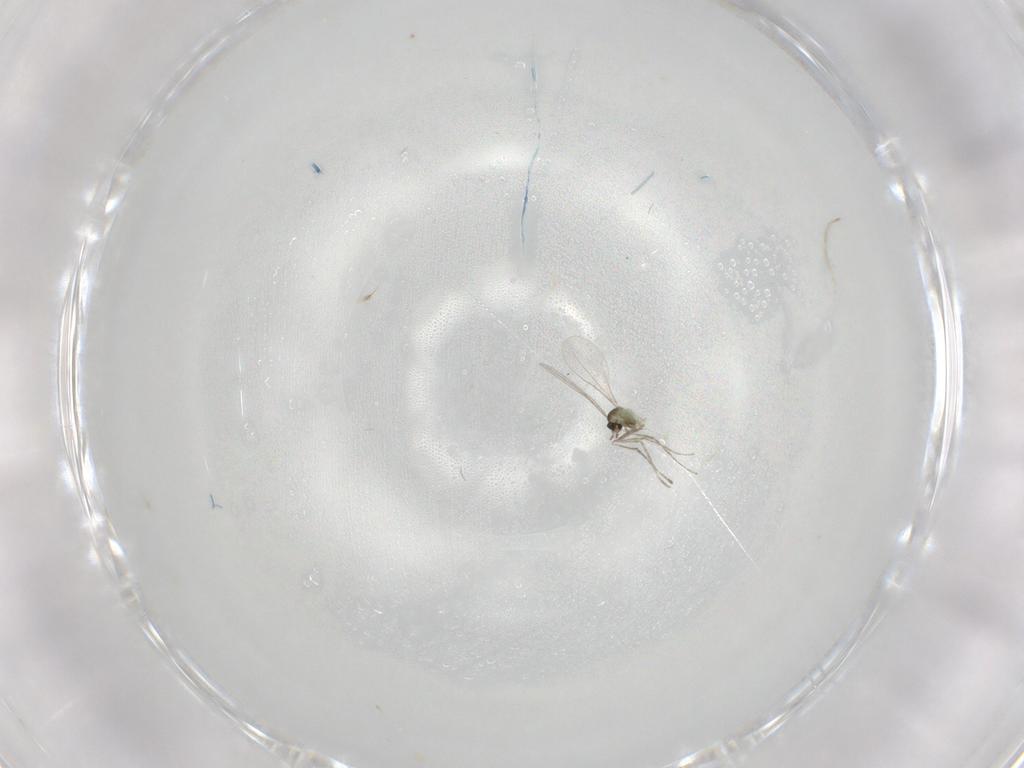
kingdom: Animalia
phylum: Arthropoda
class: Insecta
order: Diptera
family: Cecidomyiidae
